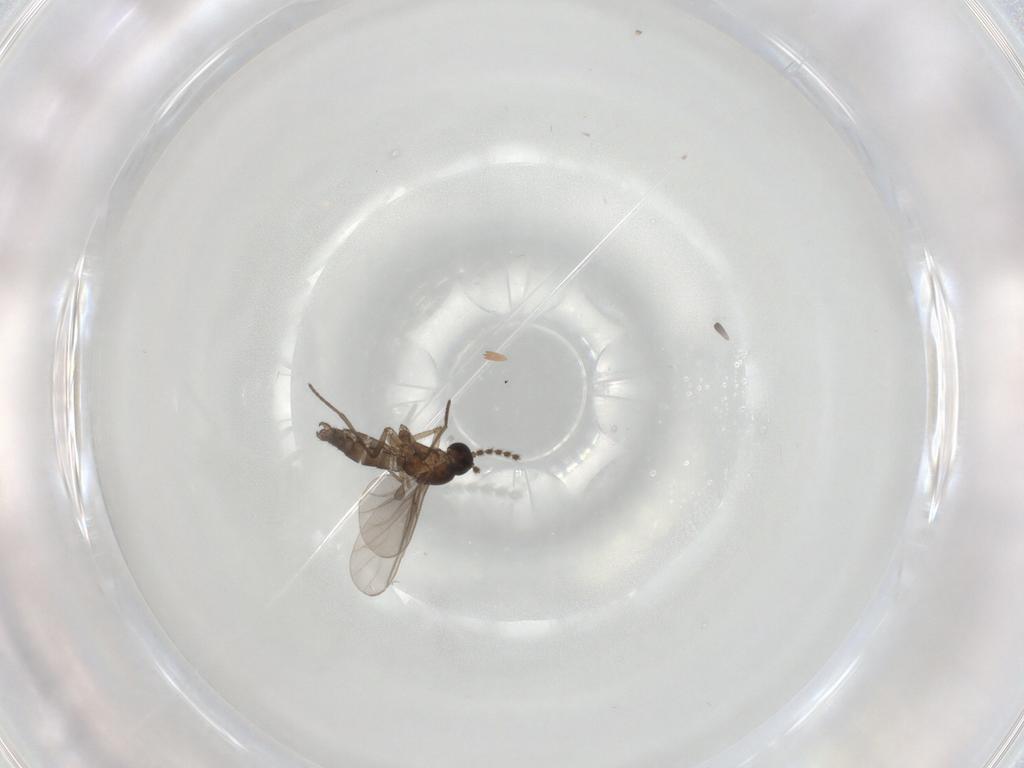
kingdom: Animalia
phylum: Arthropoda
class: Insecta
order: Diptera
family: Sciaridae
